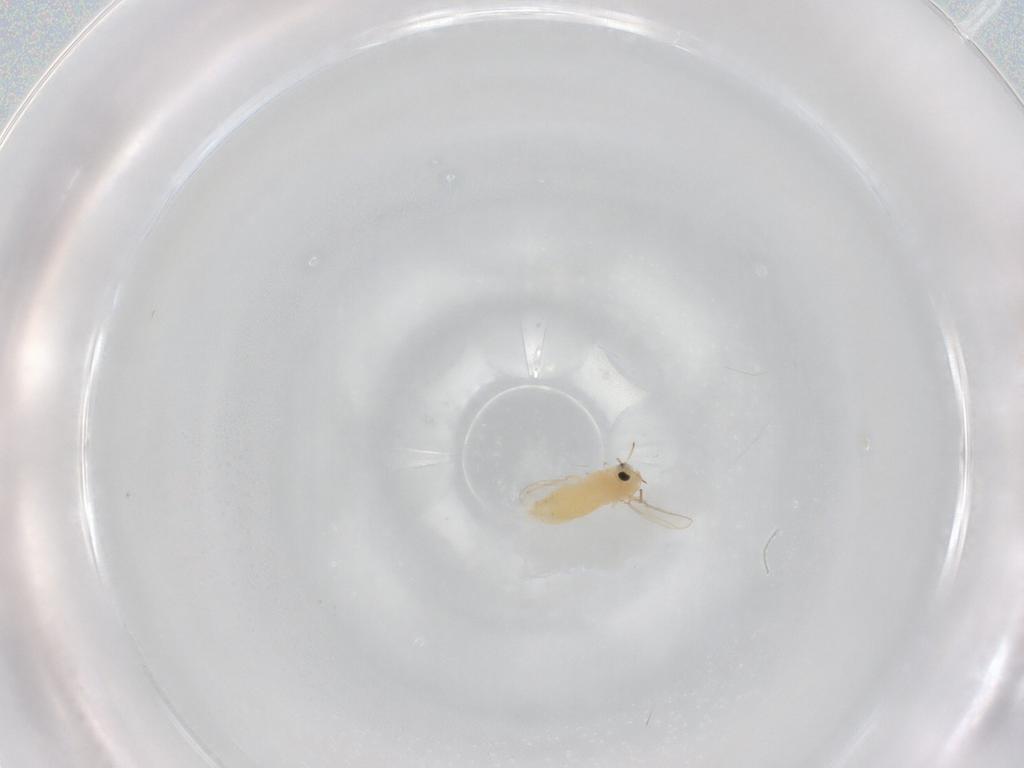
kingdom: Animalia
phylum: Arthropoda
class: Insecta
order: Diptera
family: Chironomidae
